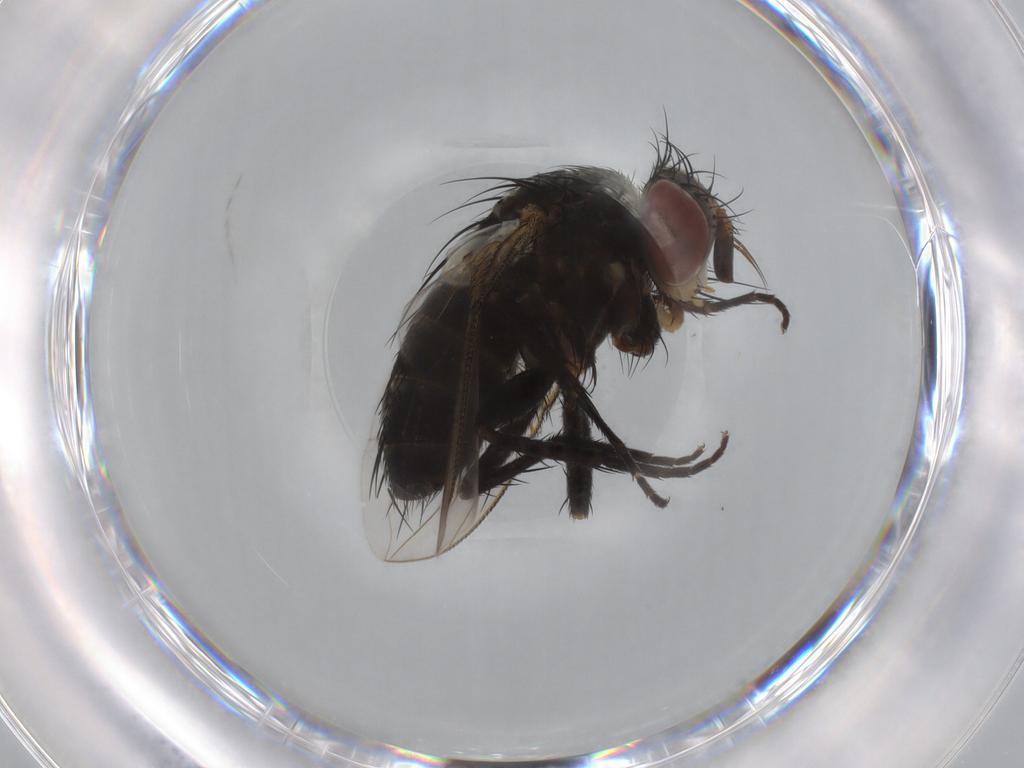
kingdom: Animalia
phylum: Arthropoda
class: Insecta
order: Diptera
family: Tachinidae
